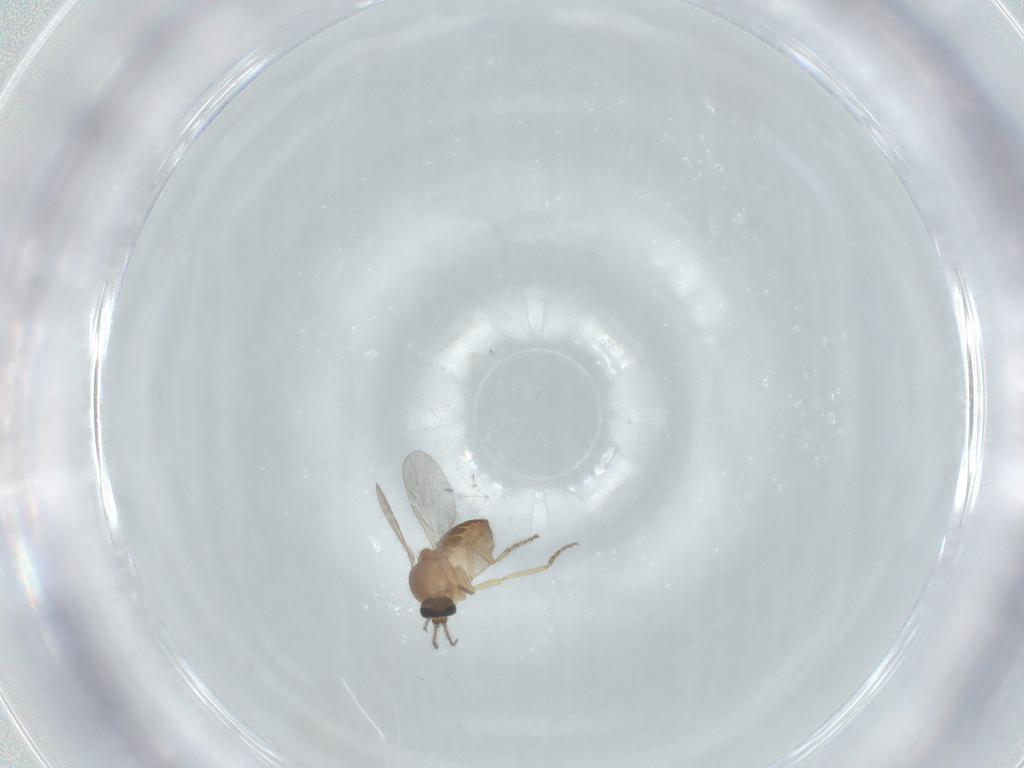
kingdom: Animalia
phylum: Arthropoda
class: Insecta
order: Diptera
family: Ceratopogonidae
